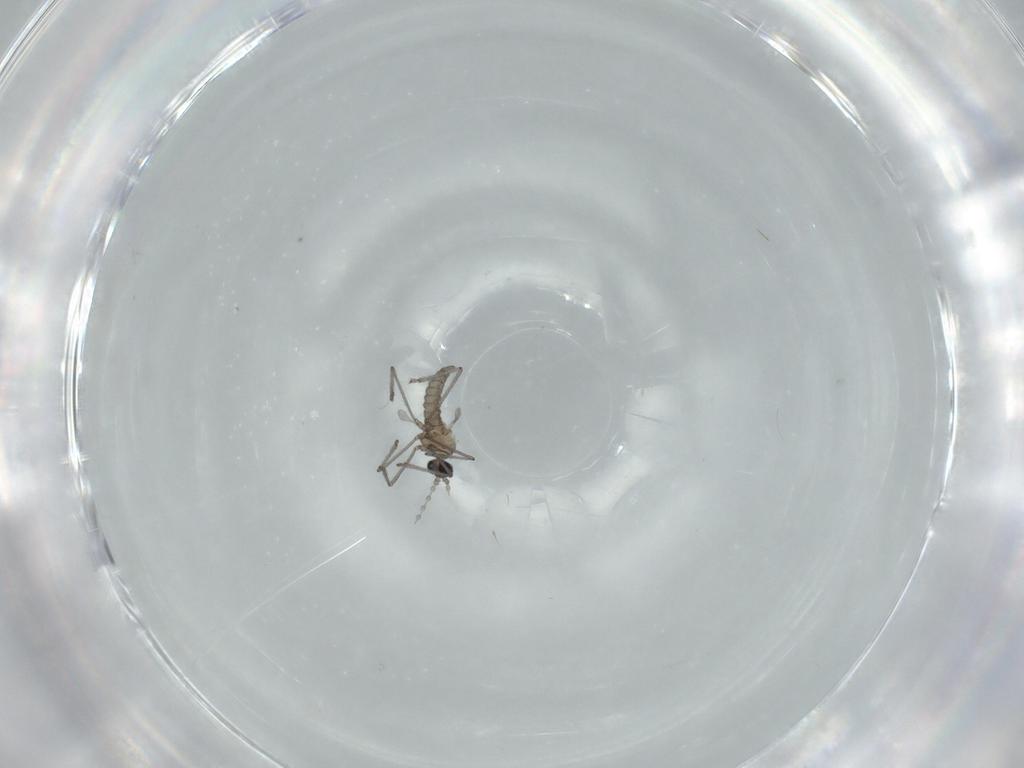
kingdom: Animalia
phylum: Arthropoda
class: Insecta
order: Diptera
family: Cecidomyiidae
